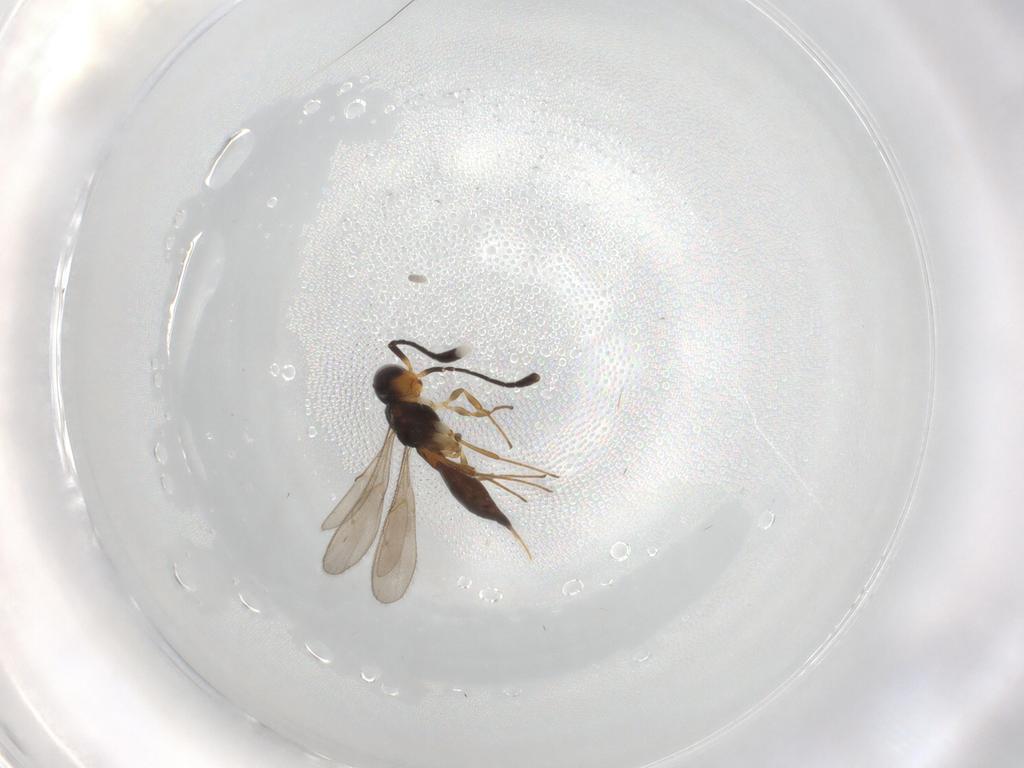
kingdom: Animalia
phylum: Arthropoda
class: Insecta
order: Hymenoptera
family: Scelionidae
